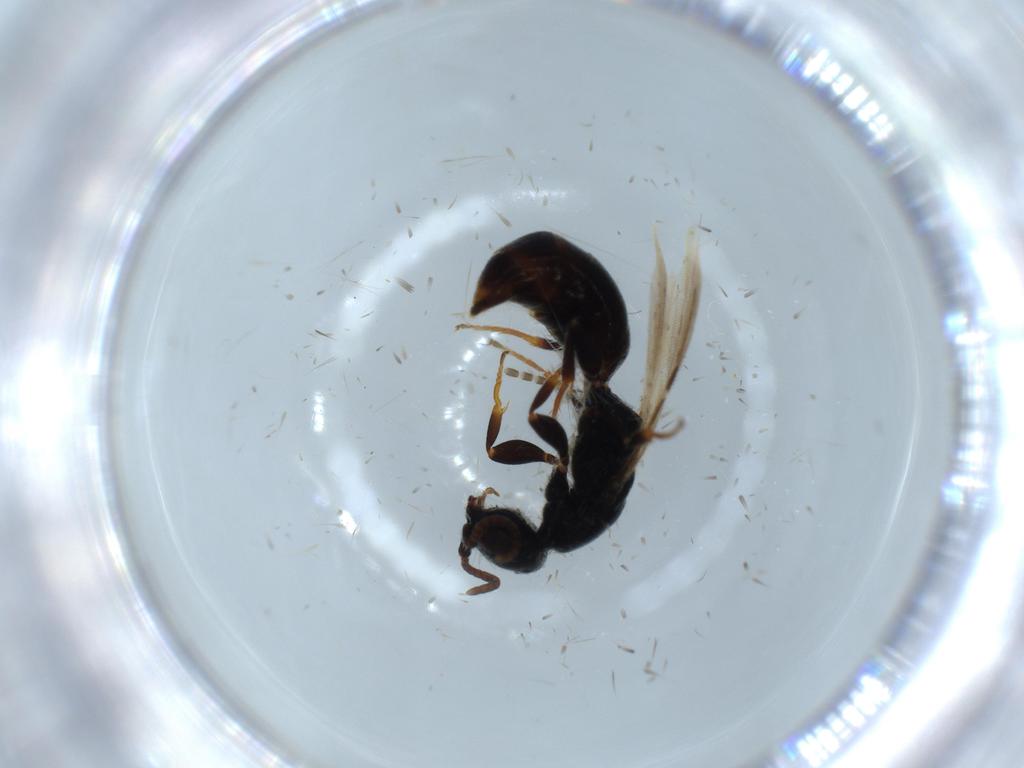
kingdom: Animalia
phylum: Arthropoda
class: Insecta
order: Hymenoptera
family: Bethylidae
